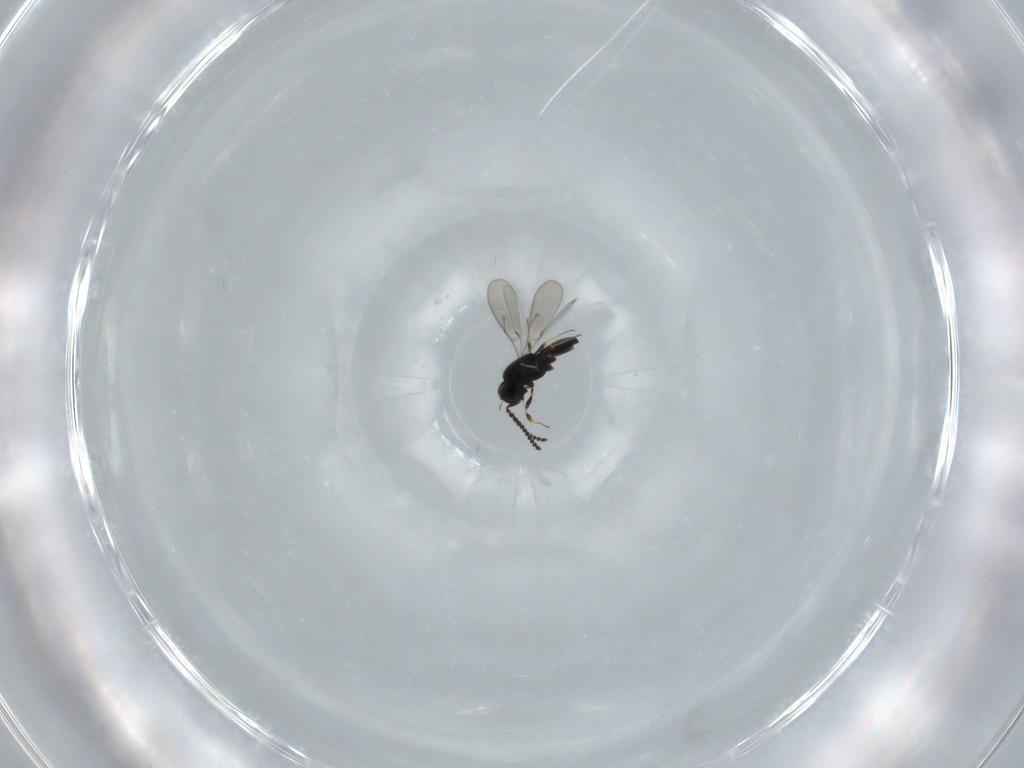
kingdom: Animalia
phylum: Arthropoda
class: Insecta
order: Hymenoptera
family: Scelionidae
